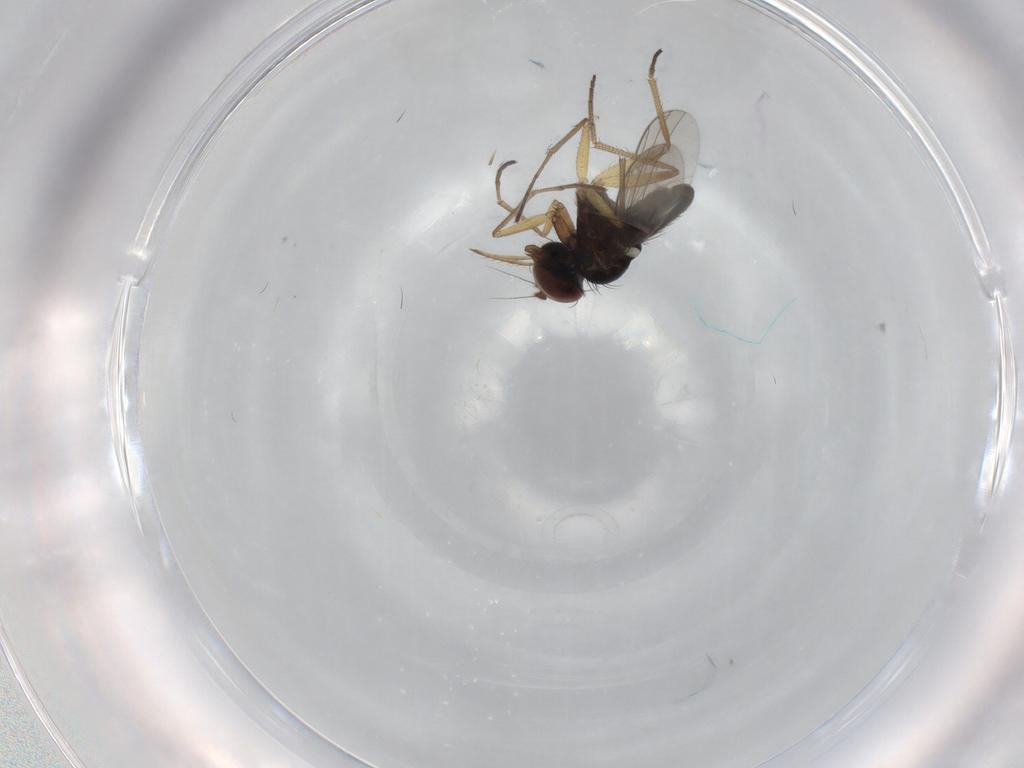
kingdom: Animalia
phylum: Arthropoda
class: Insecta
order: Diptera
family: Dolichopodidae
